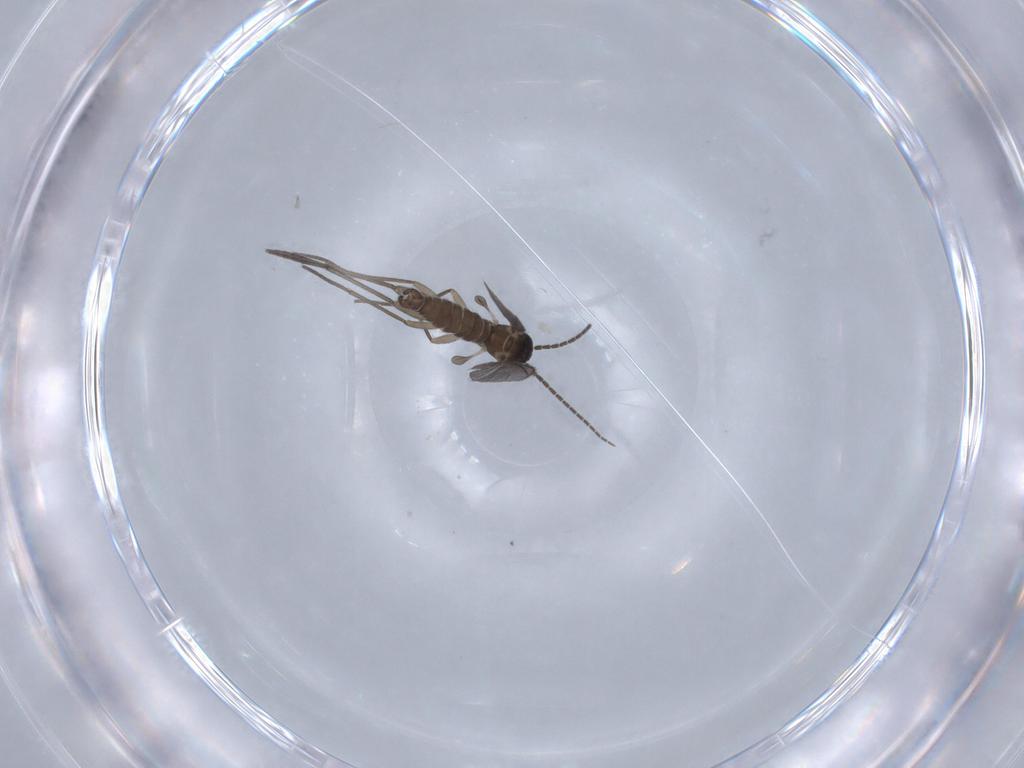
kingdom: Animalia
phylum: Arthropoda
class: Insecta
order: Diptera
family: Sciaridae
